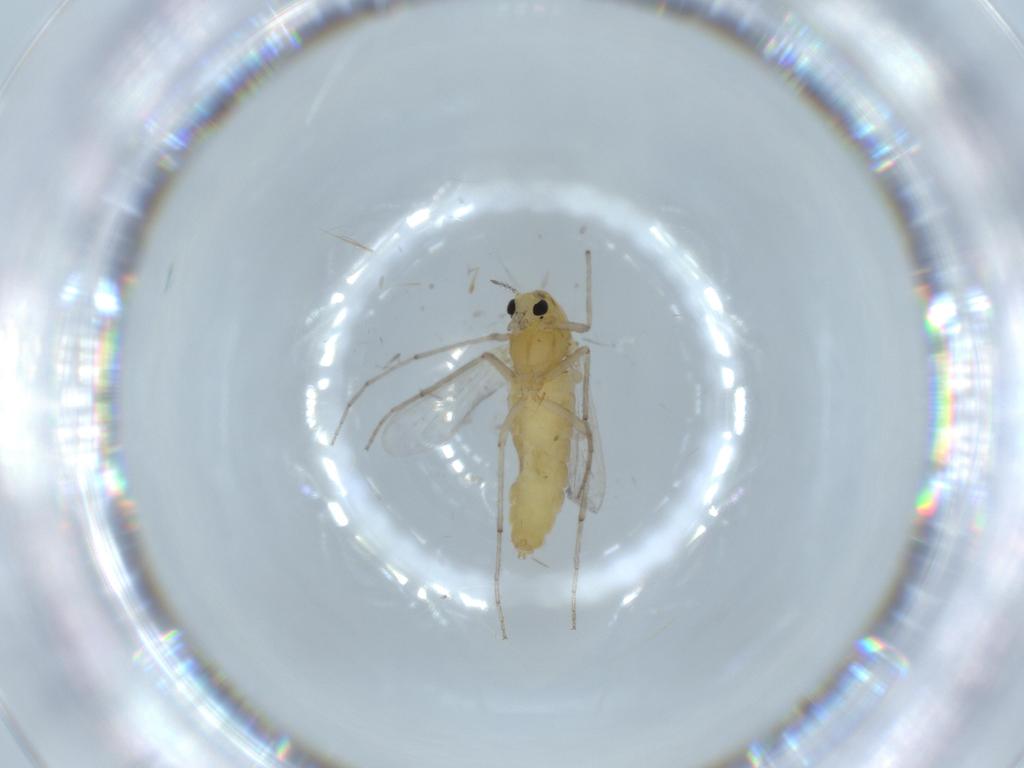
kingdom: Animalia
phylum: Arthropoda
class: Insecta
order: Diptera
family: Chironomidae
